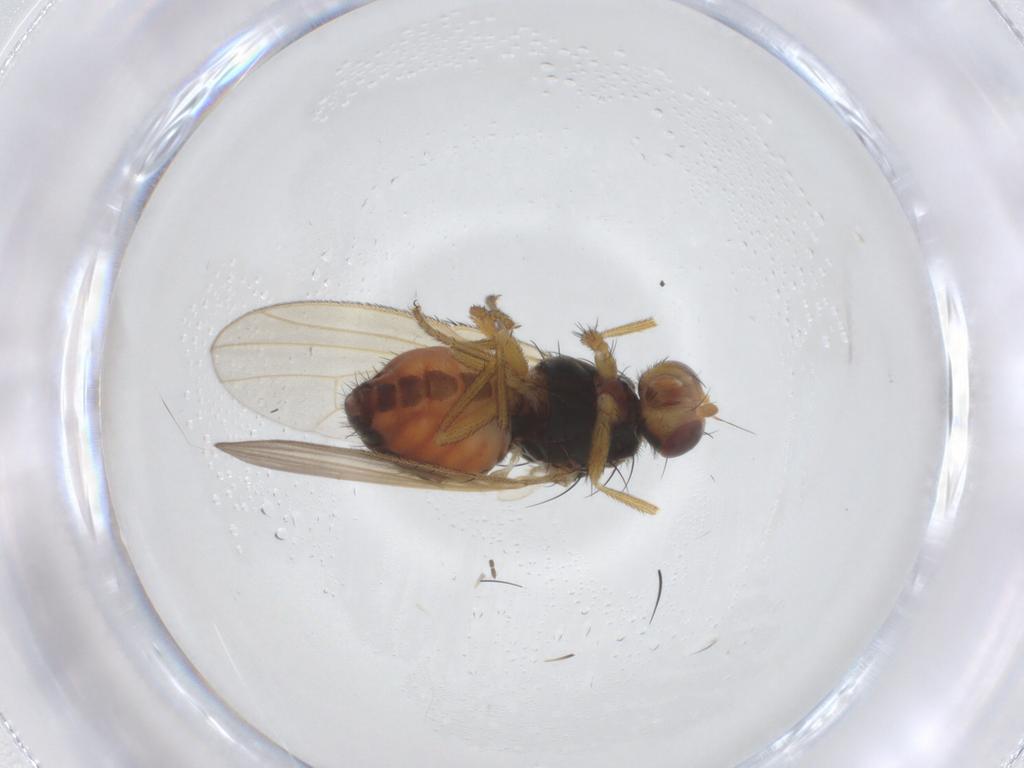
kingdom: Animalia
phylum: Arthropoda
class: Insecta
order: Diptera
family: Heleomyzidae
